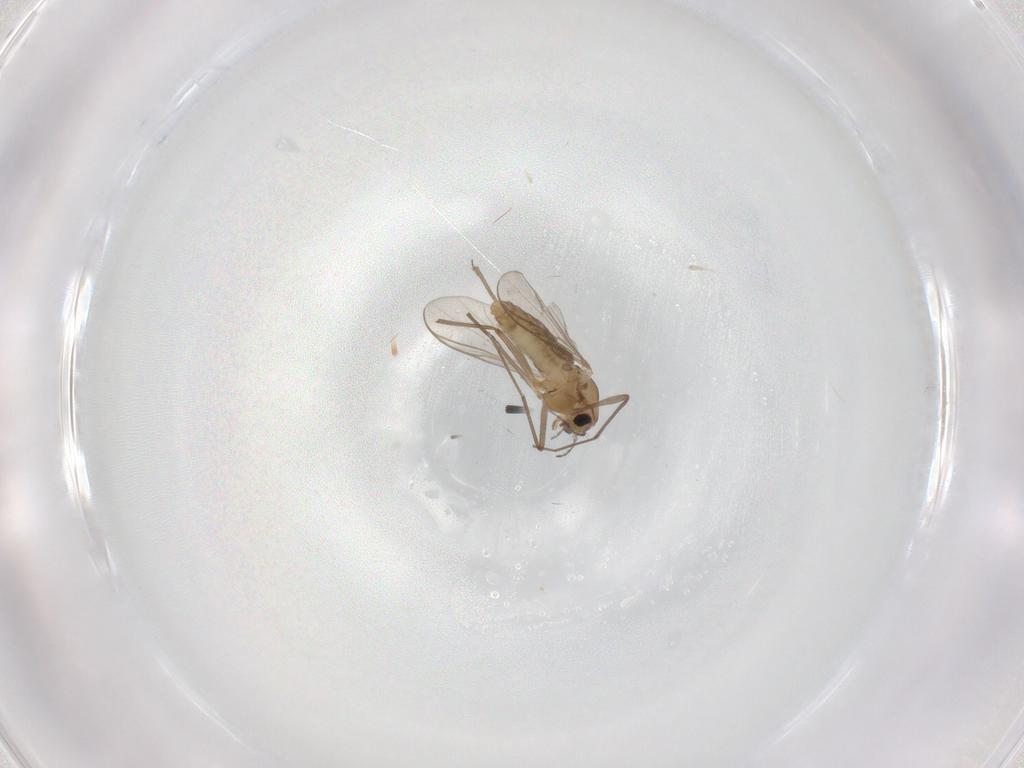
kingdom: Animalia
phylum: Arthropoda
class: Insecta
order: Diptera
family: Chironomidae
